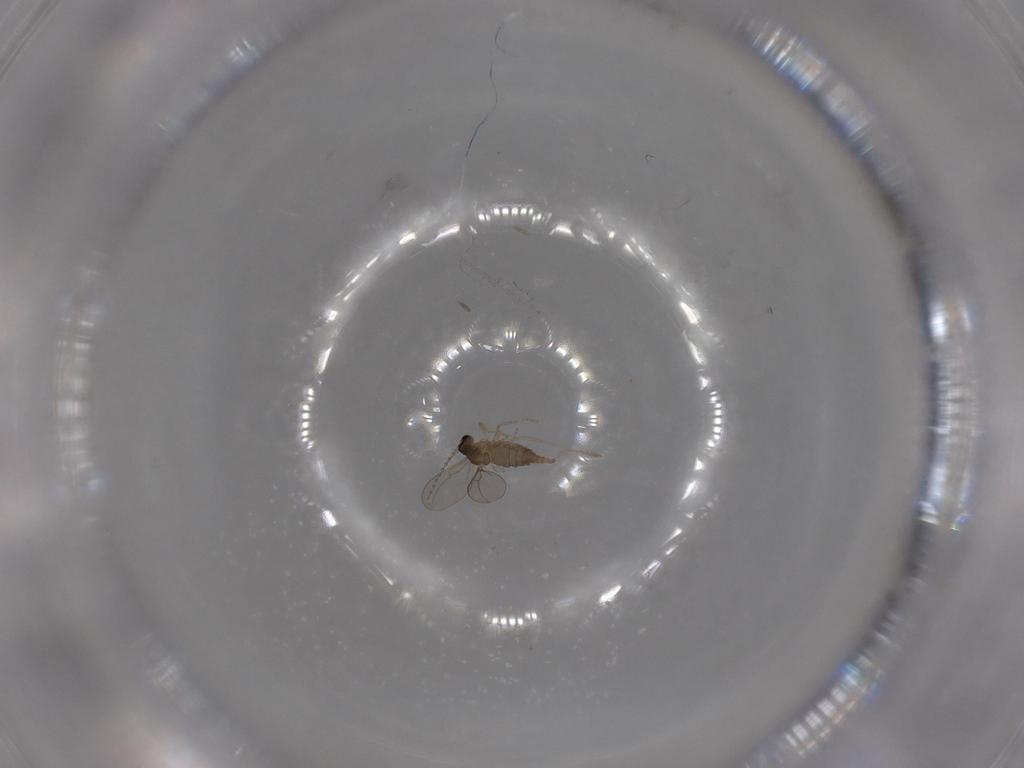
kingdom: Animalia
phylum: Arthropoda
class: Insecta
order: Diptera
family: Cecidomyiidae
